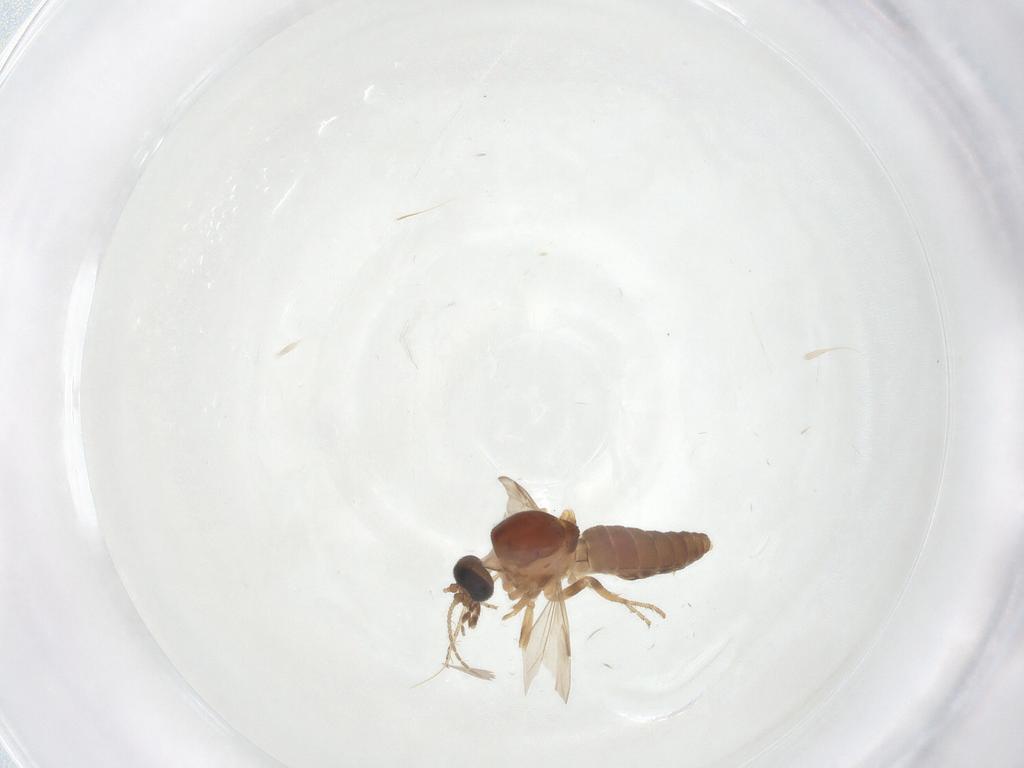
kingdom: Animalia
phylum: Arthropoda
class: Insecta
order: Diptera
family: Ceratopogonidae
